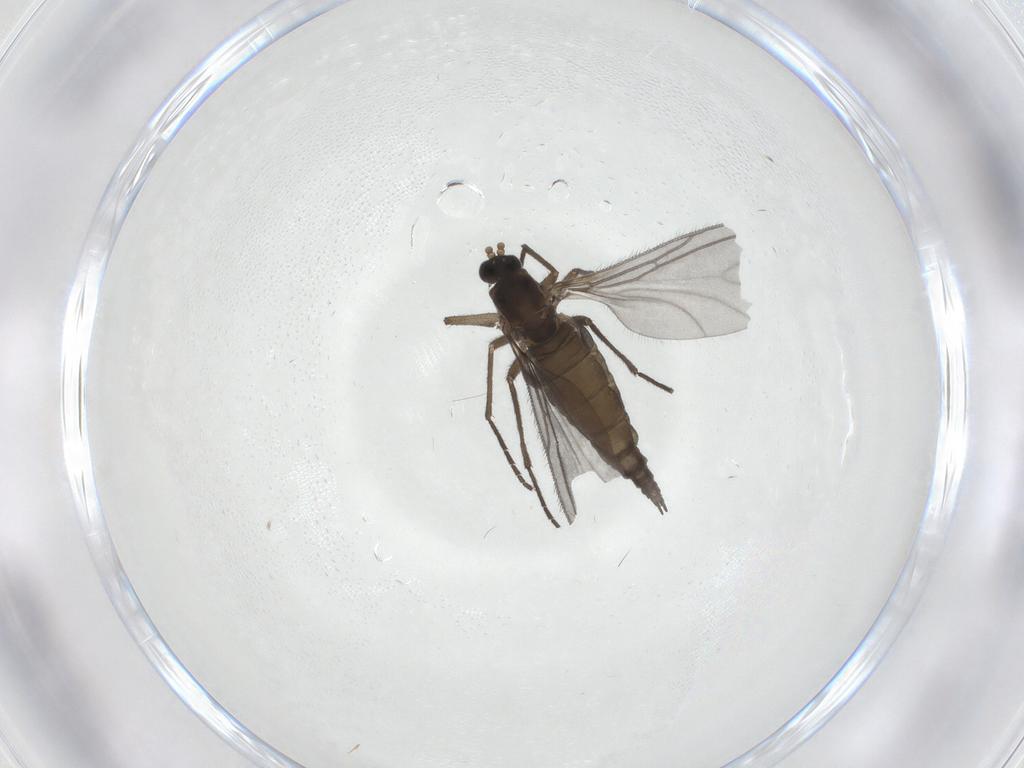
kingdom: Animalia
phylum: Arthropoda
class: Insecta
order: Diptera
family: Sciaridae
